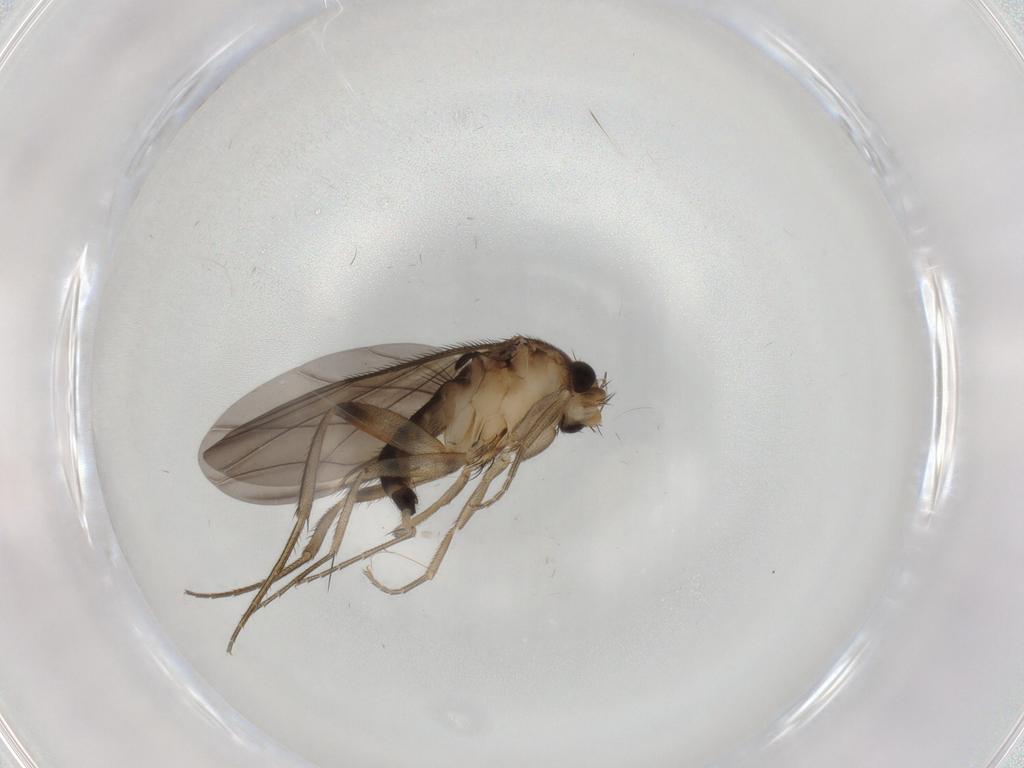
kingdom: Animalia
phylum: Arthropoda
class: Insecta
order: Diptera
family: Phoridae
